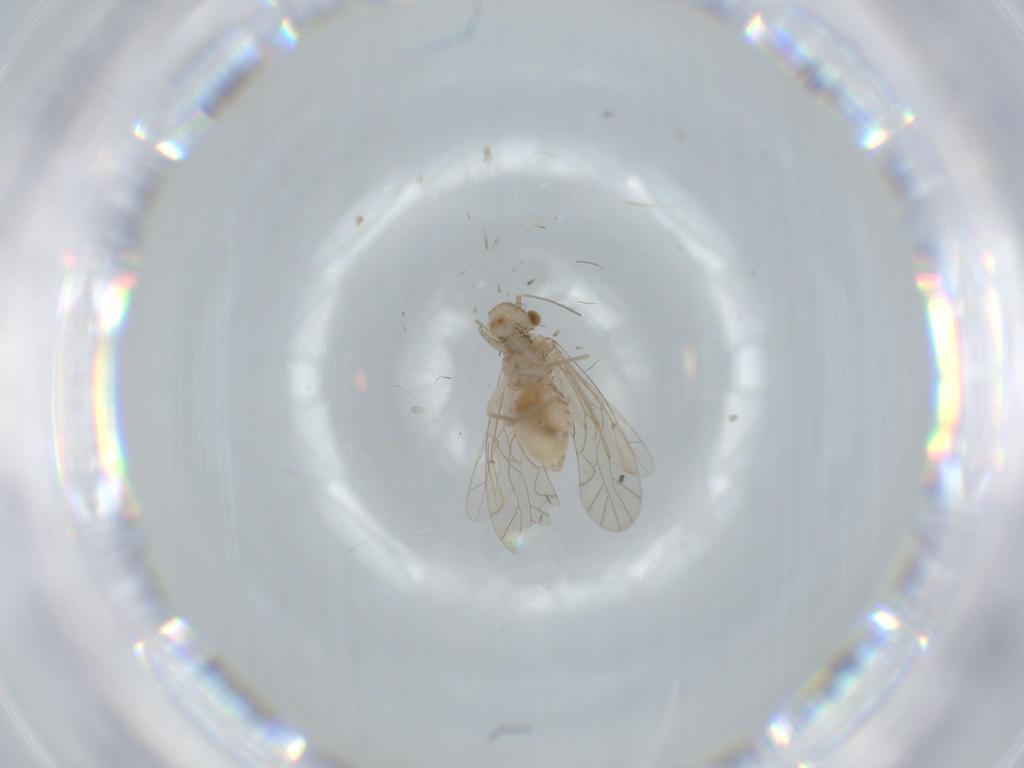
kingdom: Animalia
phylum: Arthropoda
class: Insecta
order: Psocodea
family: Lachesillidae
